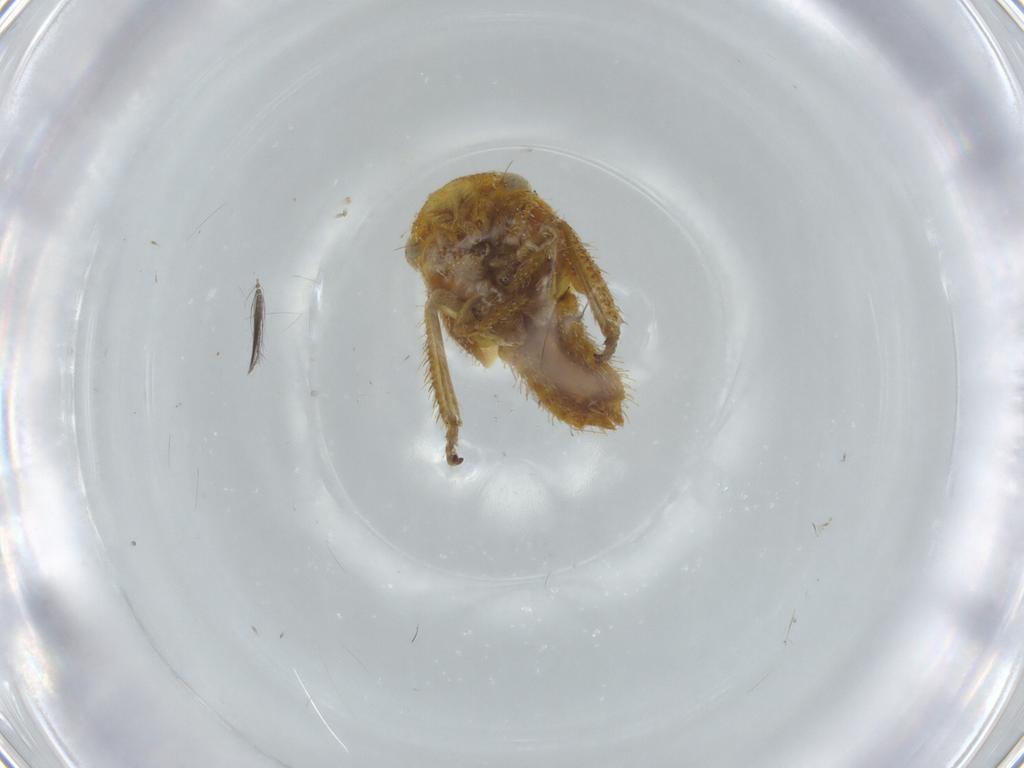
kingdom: Animalia
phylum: Arthropoda
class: Insecta
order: Hemiptera
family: Cicadellidae
